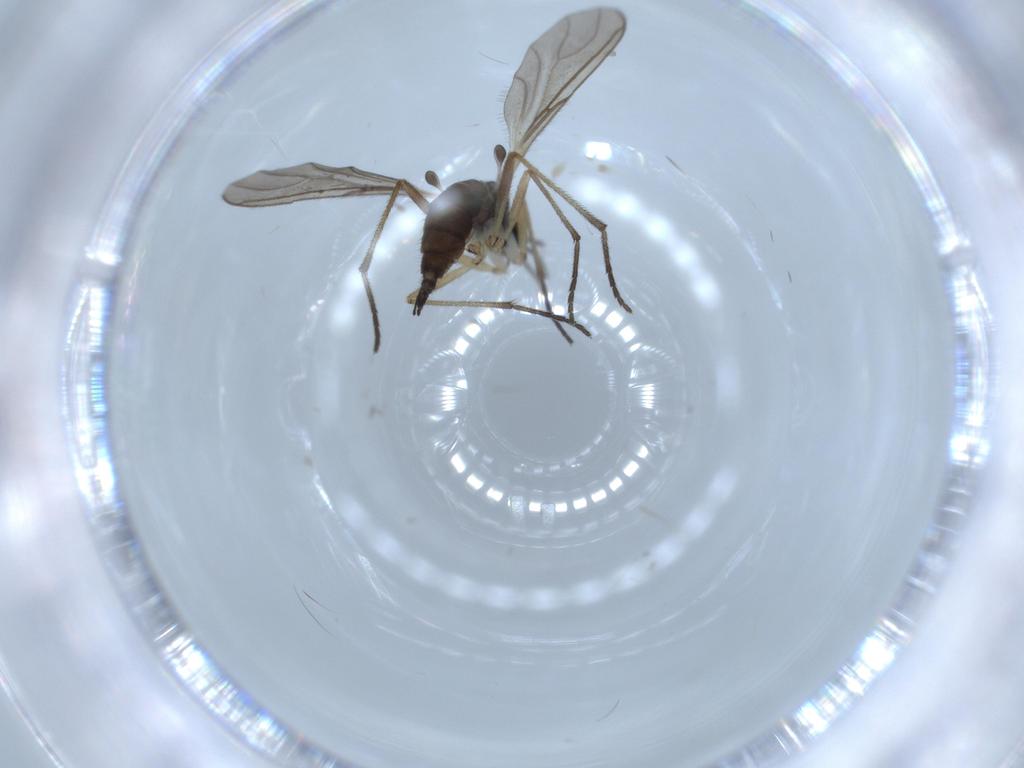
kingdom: Animalia
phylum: Arthropoda
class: Insecta
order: Diptera
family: Sciaridae
